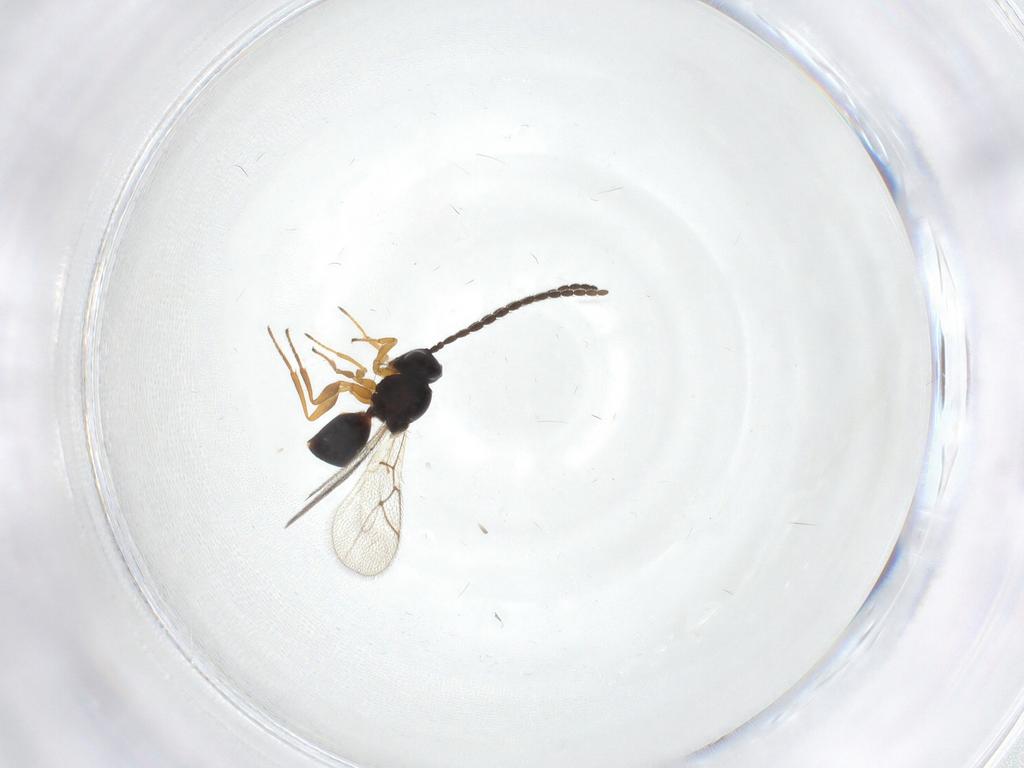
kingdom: Animalia
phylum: Arthropoda
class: Insecta
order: Hymenoptera
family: Figitidae
